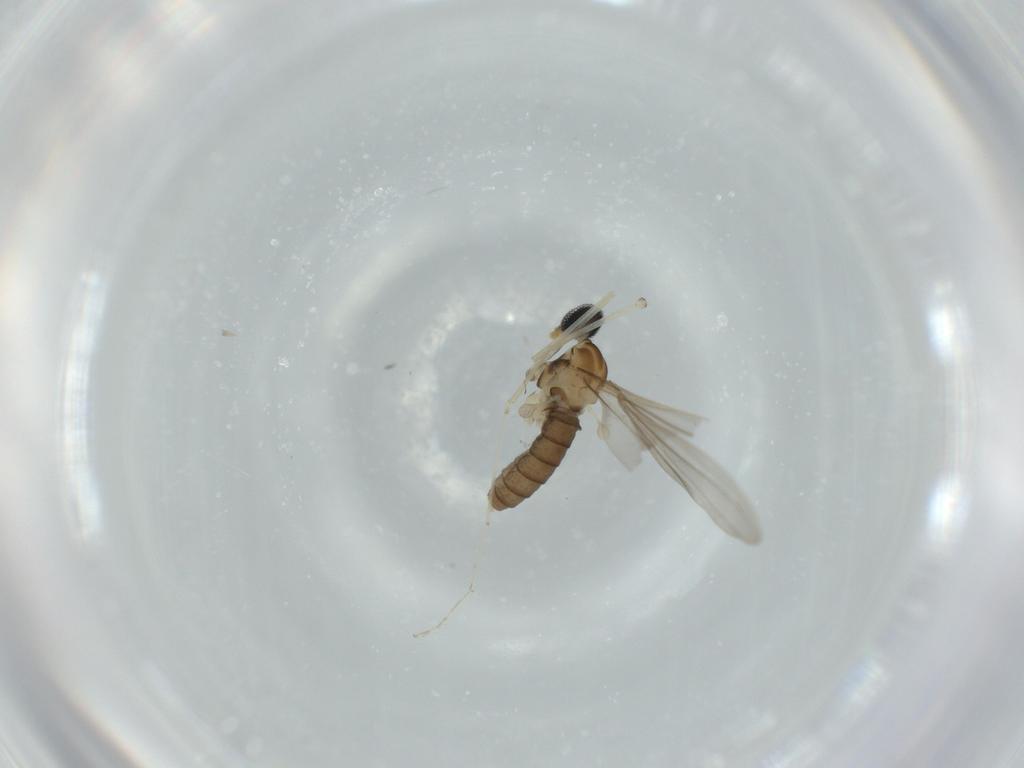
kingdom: Animalia
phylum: Arthropoda
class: Insecta
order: Diptera
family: Cecidomyiidae
